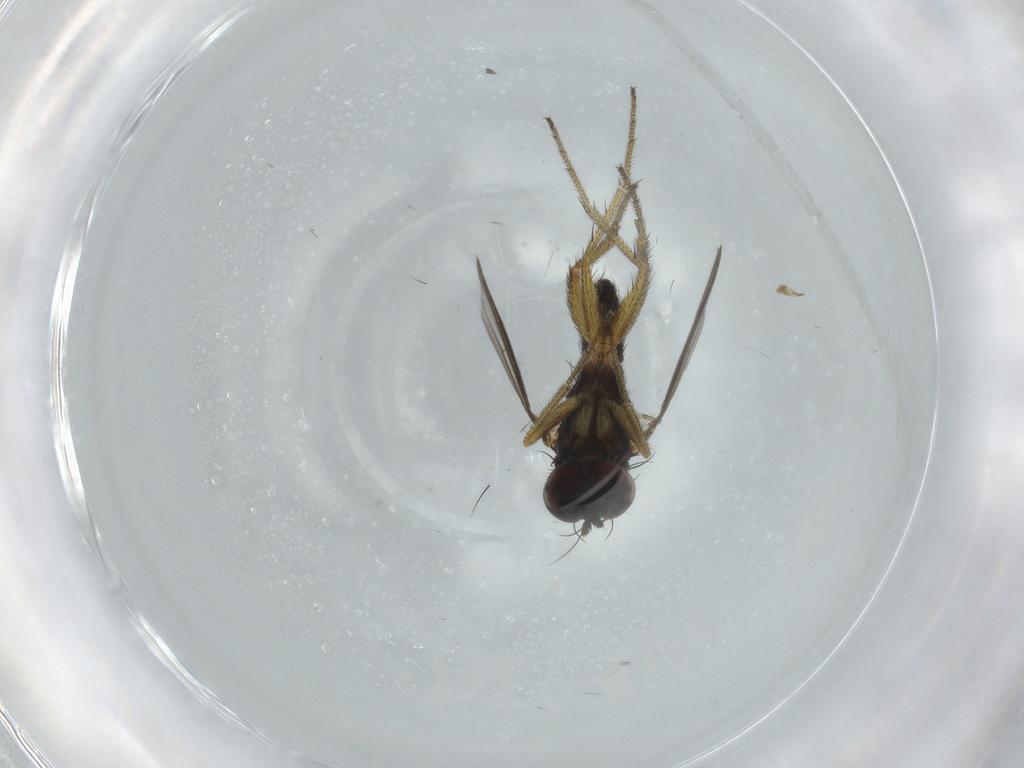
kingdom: Animalia
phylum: Arthropoda
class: Insecta
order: Diptera
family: Dolichopodidae
